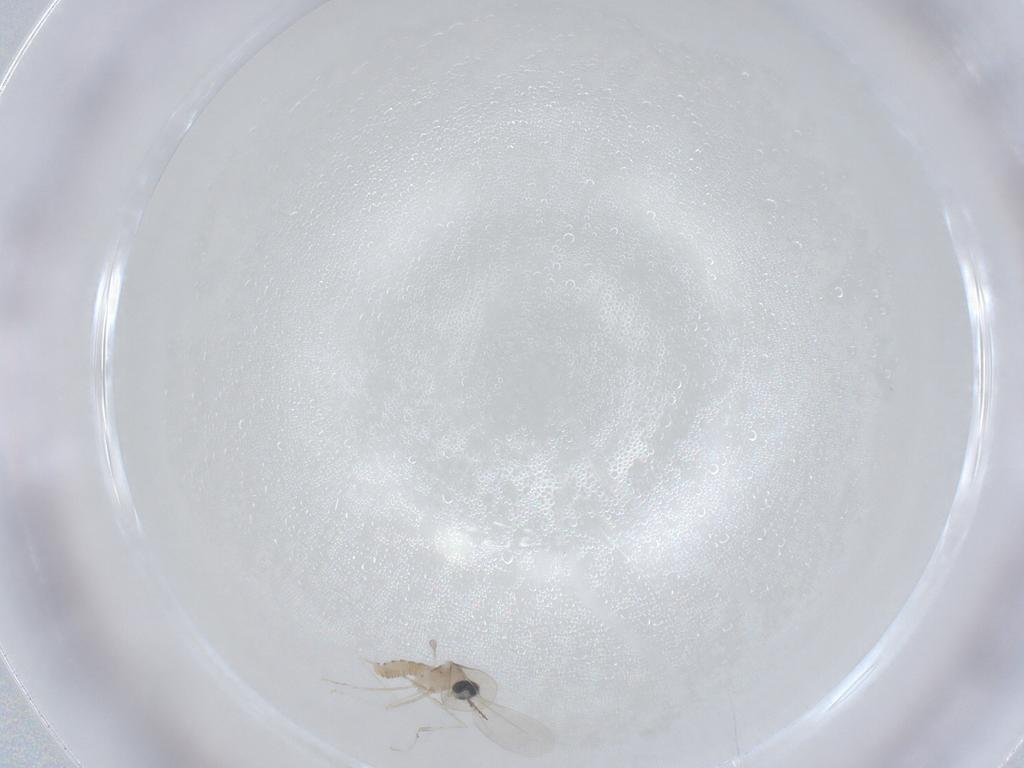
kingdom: Animalia
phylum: Arthropoda
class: Insecta
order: Diptera
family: Cecidomyiidae
